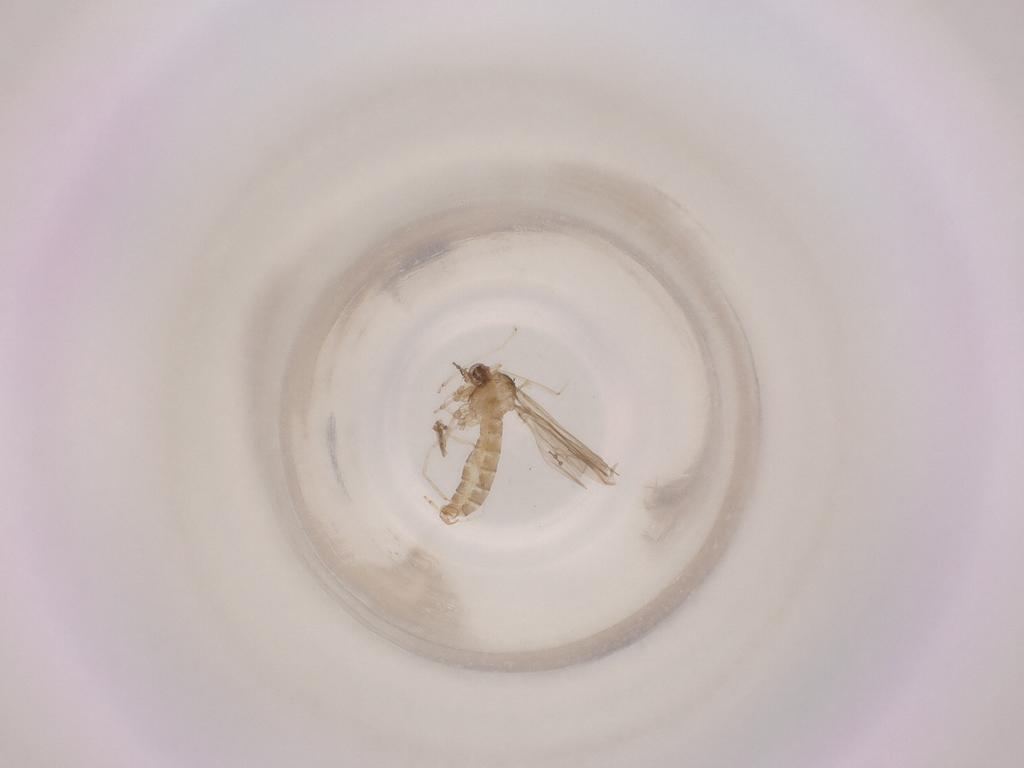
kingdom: Animalia
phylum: Arthropoda
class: Insecta
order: Diptera
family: Cecidomyiidae
